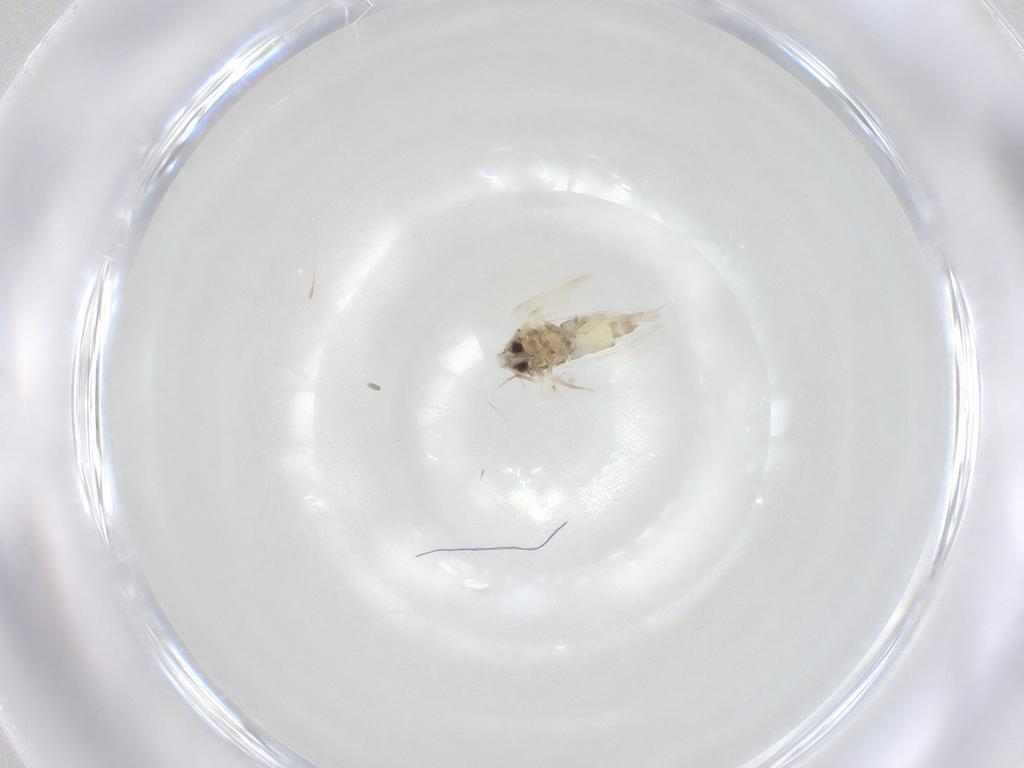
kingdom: Animalia
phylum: Arthropoda
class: Insecta
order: Hemiptera
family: Aleyrodidae
